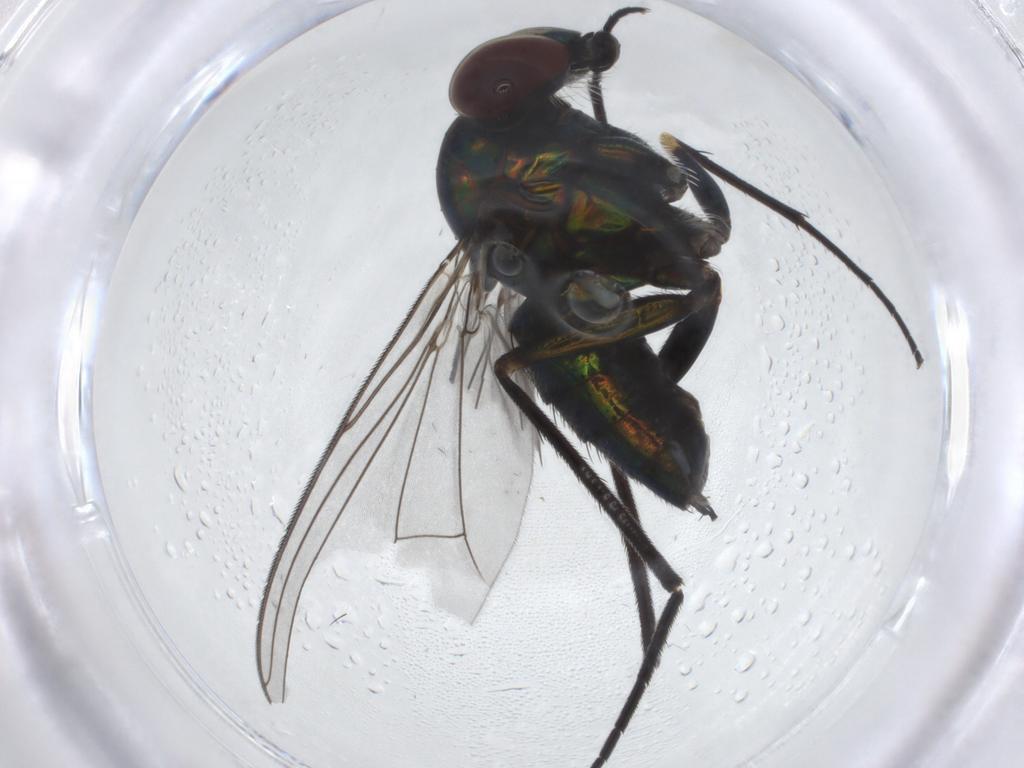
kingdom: Animalia
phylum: Arthropoda
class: Insecta
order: Diptera
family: Dolichopodidae
